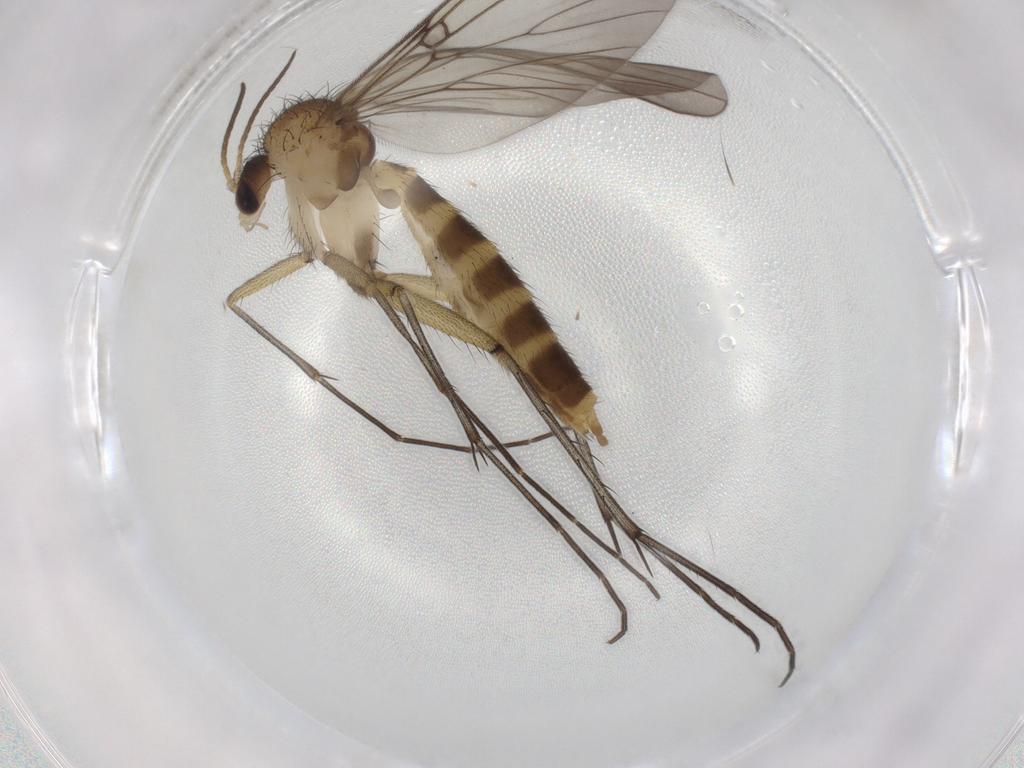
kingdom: Animalia
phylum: Arthropoda
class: Insecta
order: Diptera
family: Mycetophilidae
